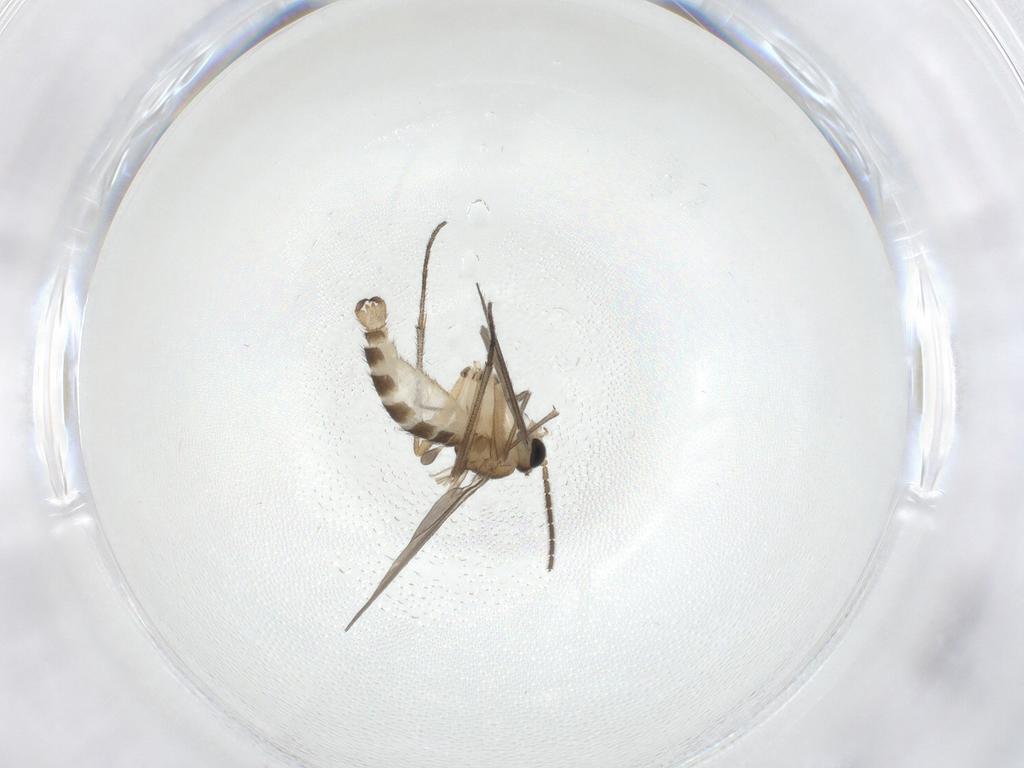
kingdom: Animalia
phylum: Arthropoda
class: Insecta
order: Diptera
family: Sciaridae
